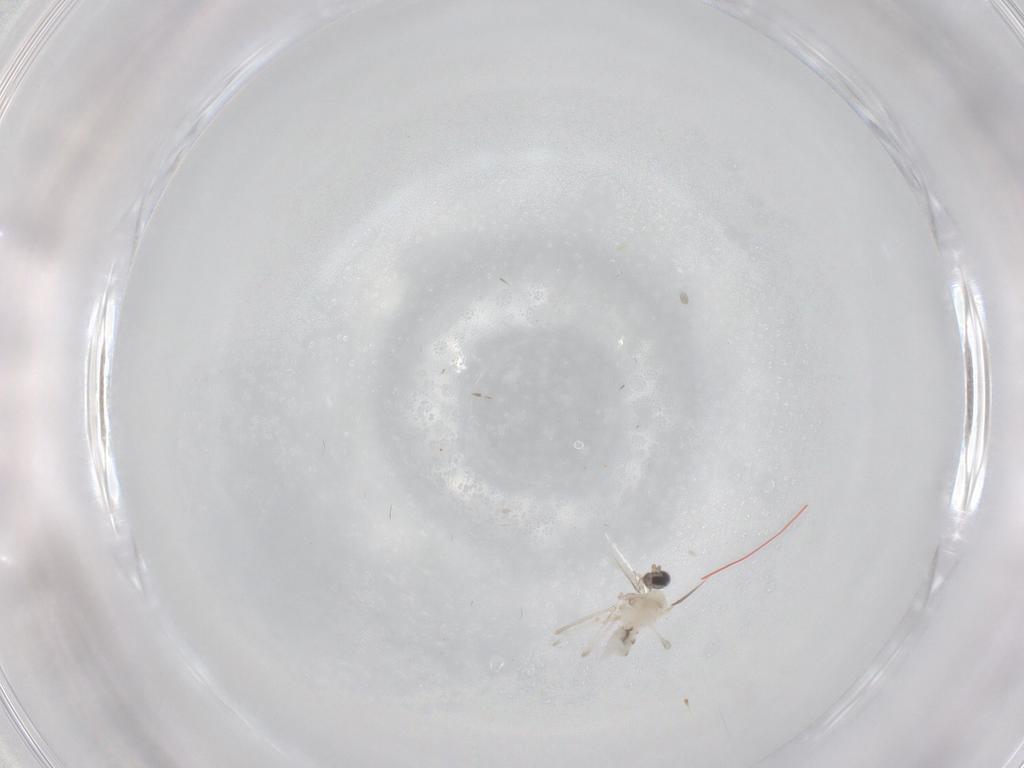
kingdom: Animalia
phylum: Arthropoda
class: Insecta
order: Diptera
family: Cecidomyiidae
